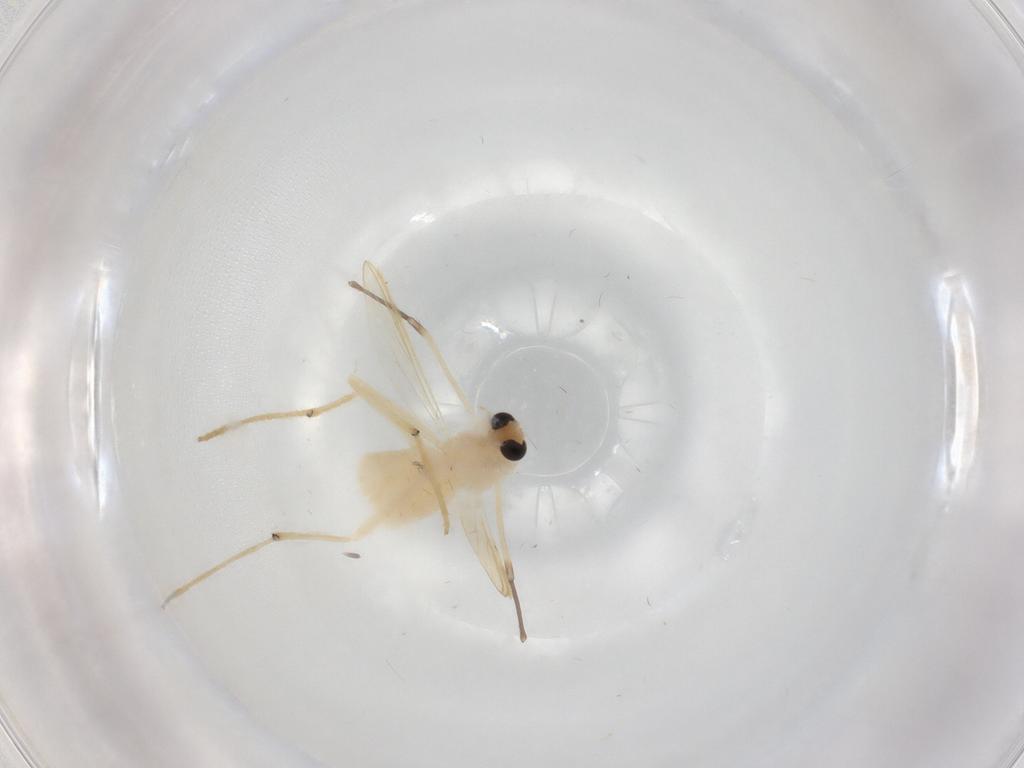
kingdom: Animalia
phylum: Arthropoda
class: Insecta
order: Diptera
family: Chironomidae
